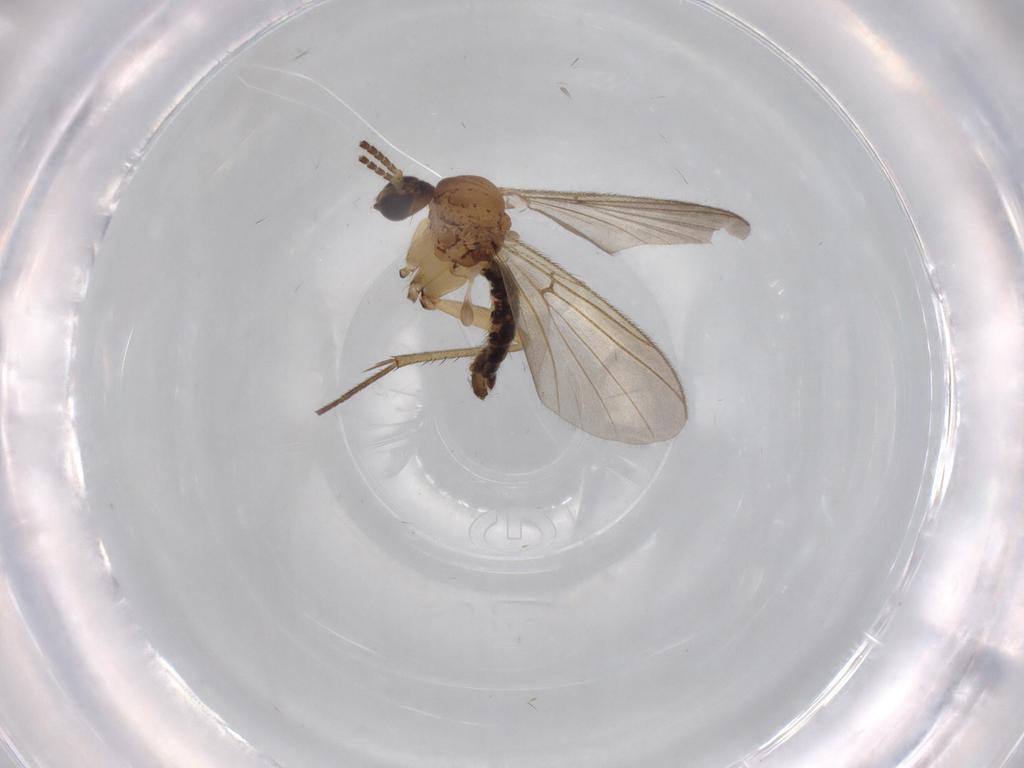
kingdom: Animalia
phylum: Arthropoda
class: Insecta
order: Diptera
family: Mycetophilidae
